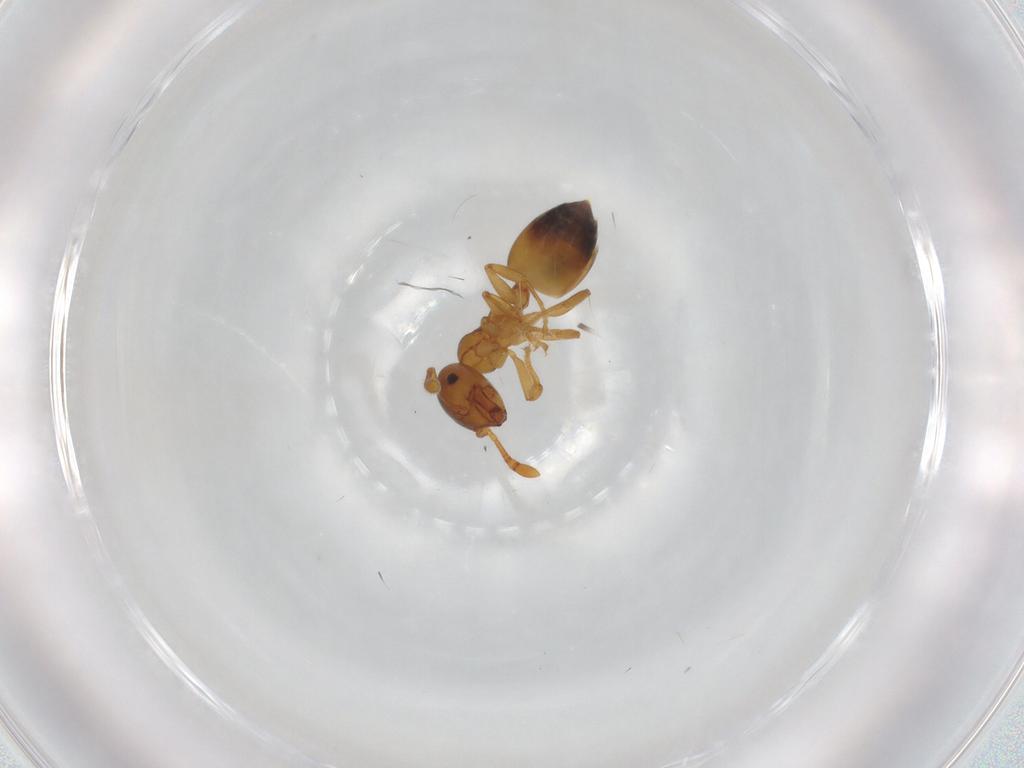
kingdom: Animalia
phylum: Arthropoda
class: Insecta
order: Hymenoptera
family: Formicidae
